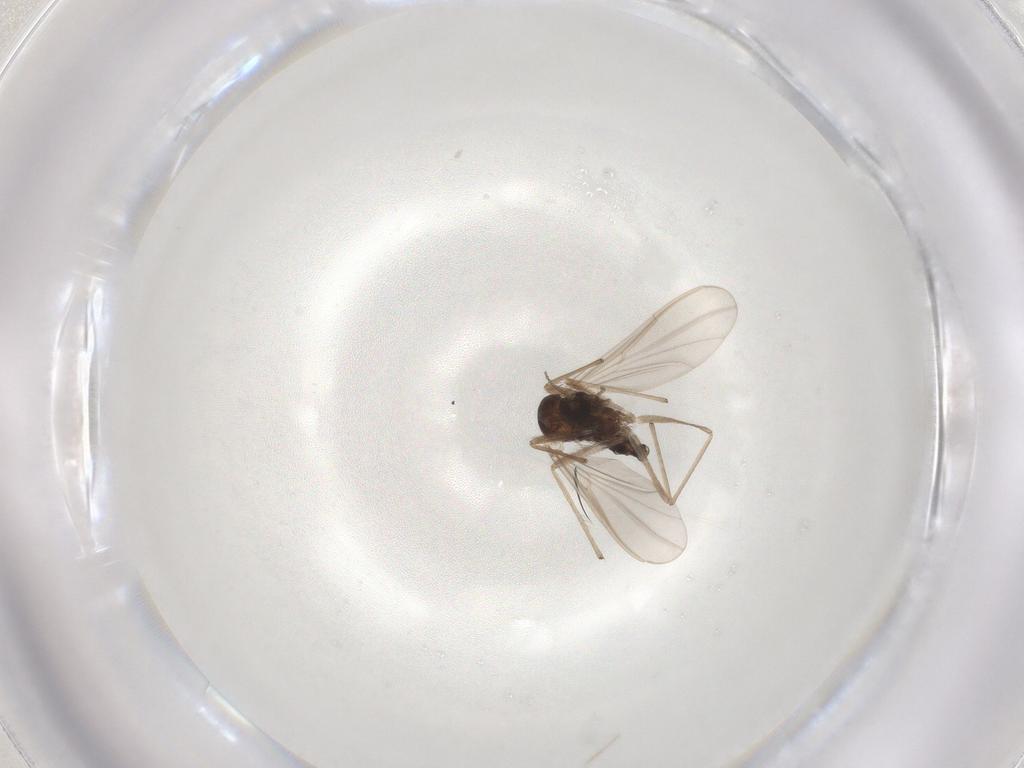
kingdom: Animalia
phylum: Arthropoda
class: Insecta
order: Diptera
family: Chironomidae
